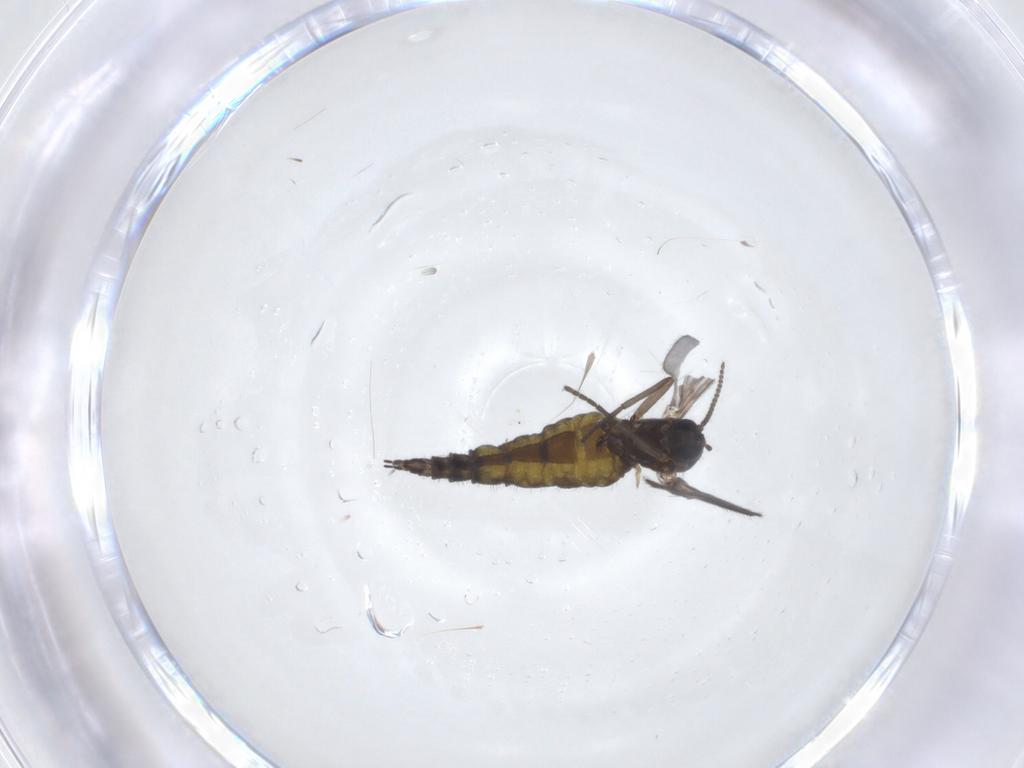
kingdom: Animalia
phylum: Arthropoda
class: Insecta
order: Diptera
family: Sciaridae
